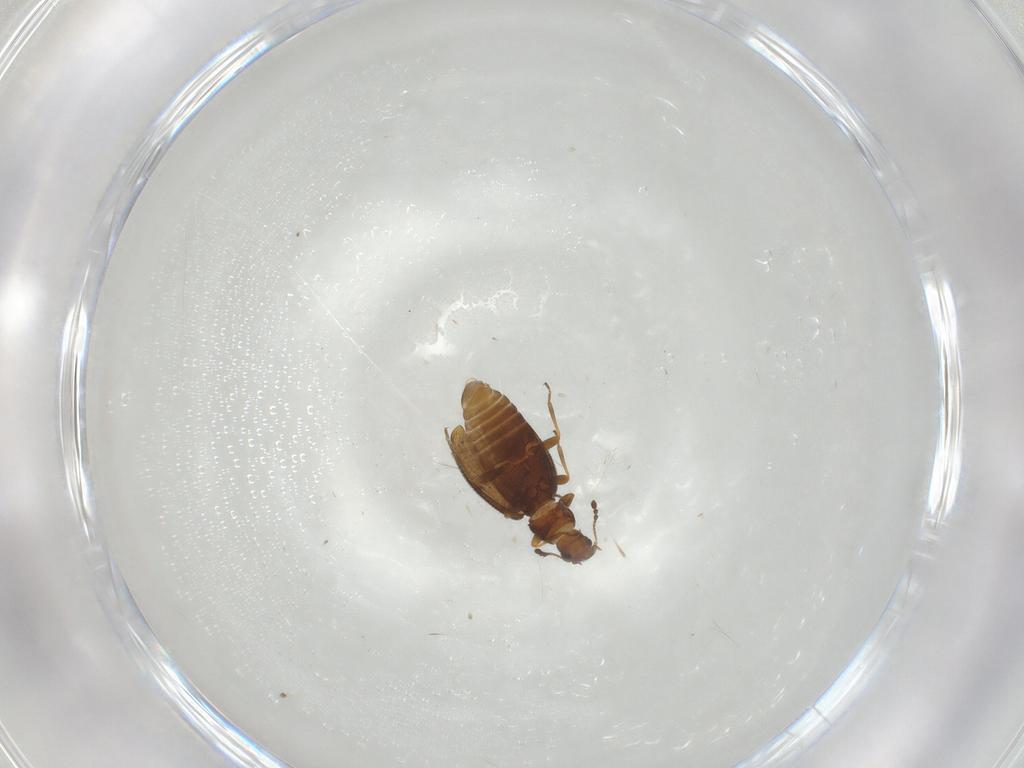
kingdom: Animalia
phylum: Arthropoda
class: Insecta
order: Coleoptera
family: Latridiidae
